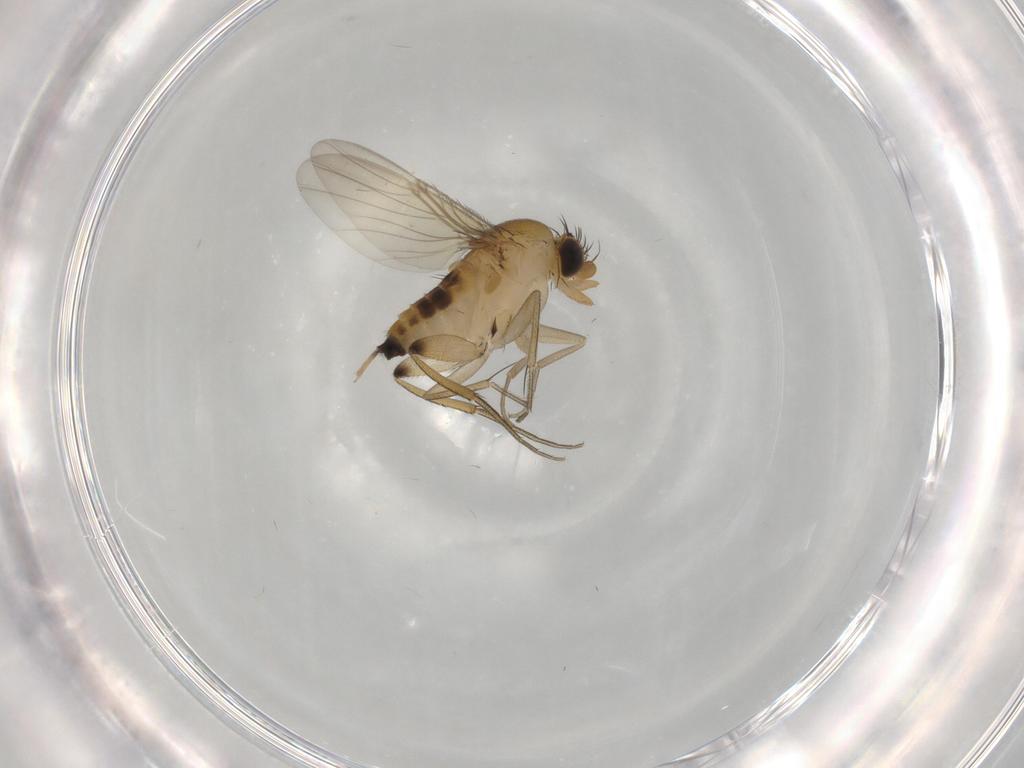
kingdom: Animalia
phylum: Arthropoda
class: Insecta
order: Diptera
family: Phoridae
